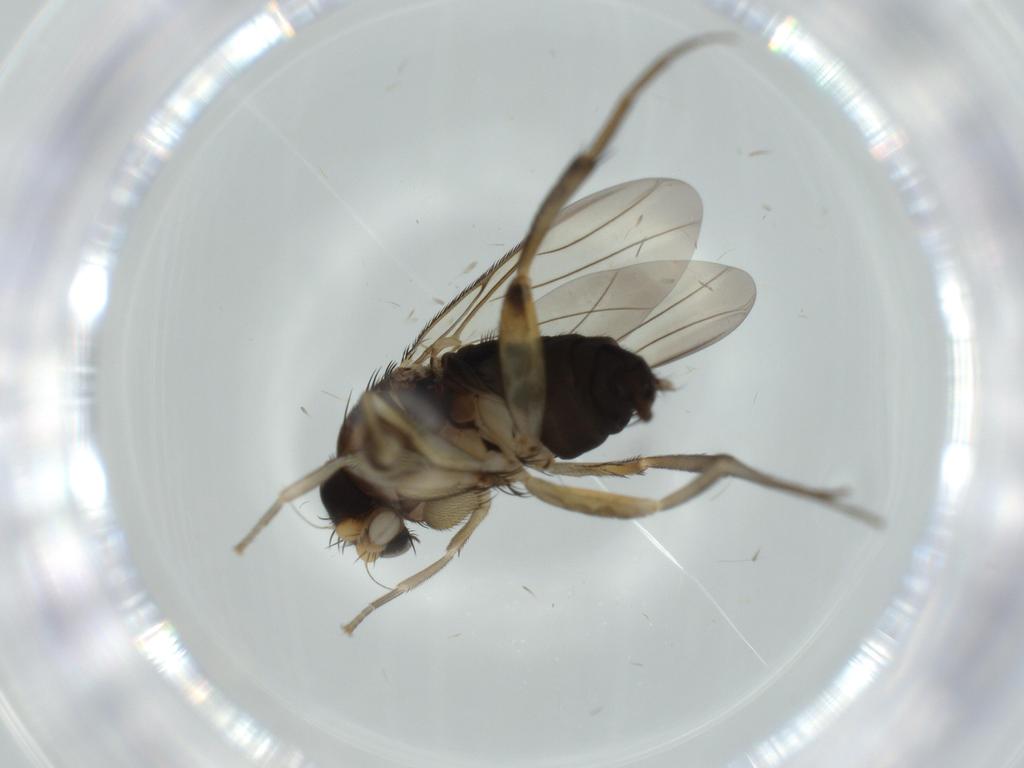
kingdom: Animalia
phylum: Arthropoda
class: Insecta
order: Diptera
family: Phoridae
